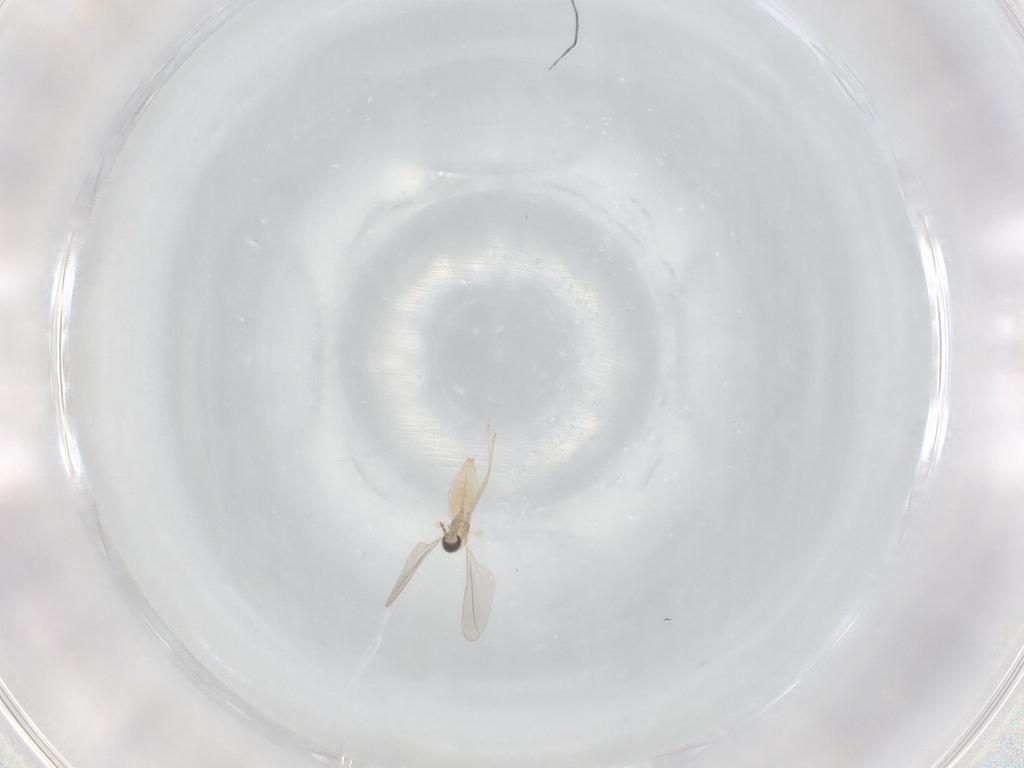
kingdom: Animalia
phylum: Arthropoda
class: Insecta
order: Diptera
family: Cecidomyiidae
